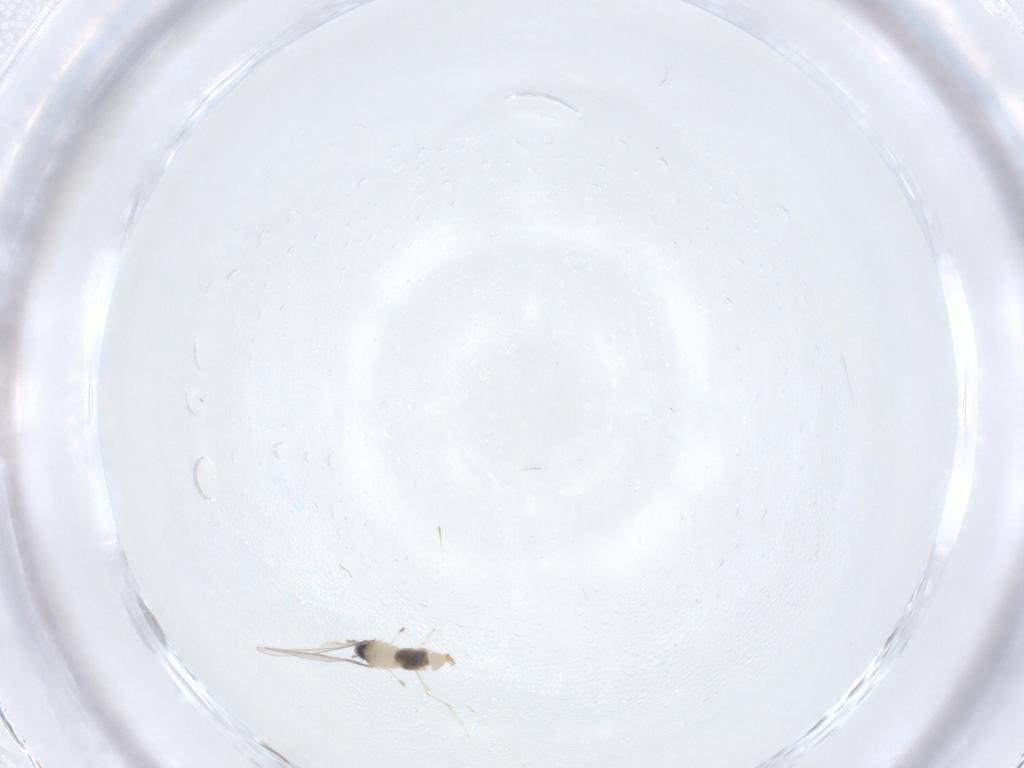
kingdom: Animalia
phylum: Arthropoda
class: Insecta
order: Diptera
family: Cecidomyiidae
